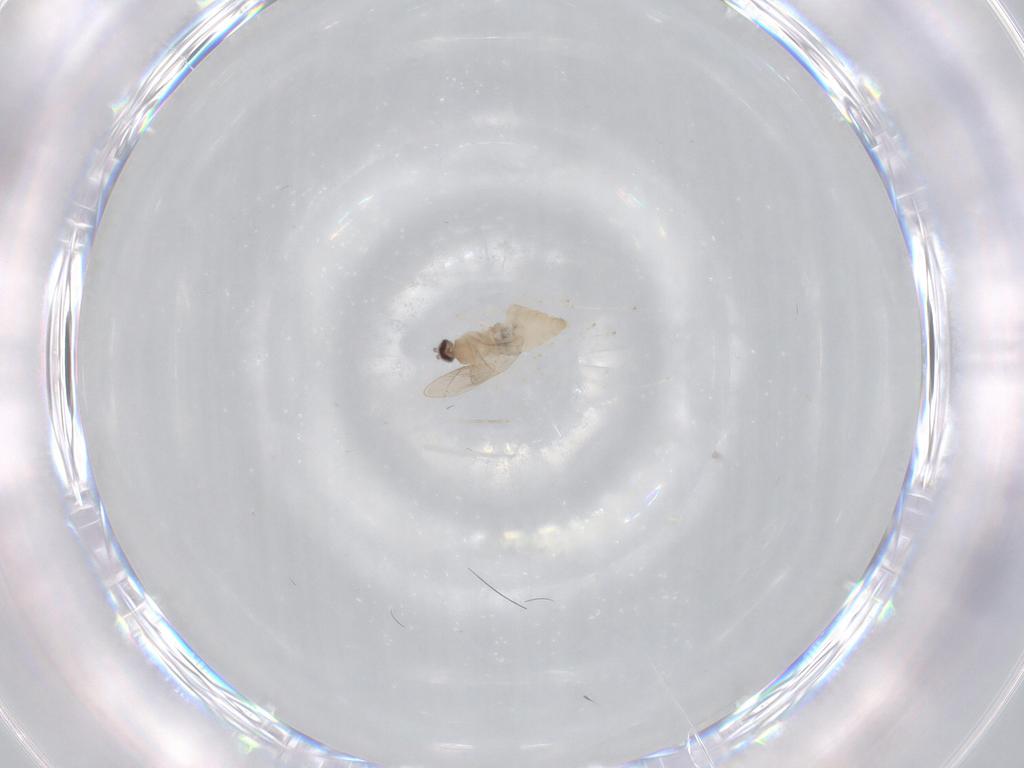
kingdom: Animalia
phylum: Arthropoda
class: Insecta
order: Diptera
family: Cecidomyiidae
